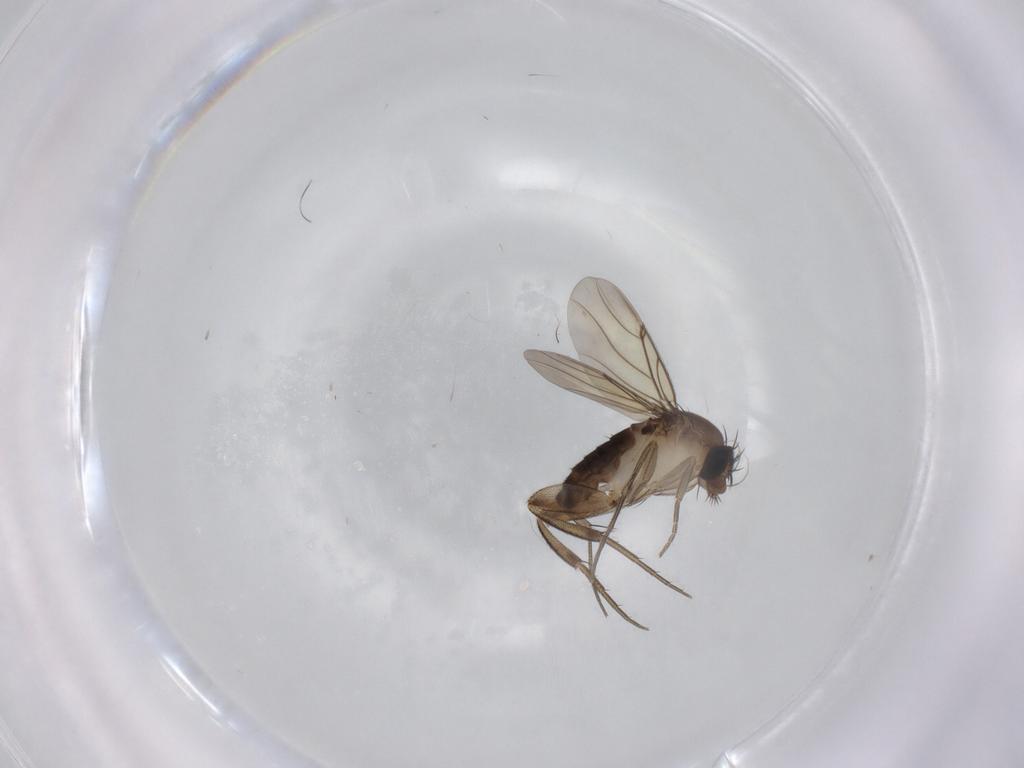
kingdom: Animalia
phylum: Arthropoda
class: Insecta
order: Diptera
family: Phoridae
